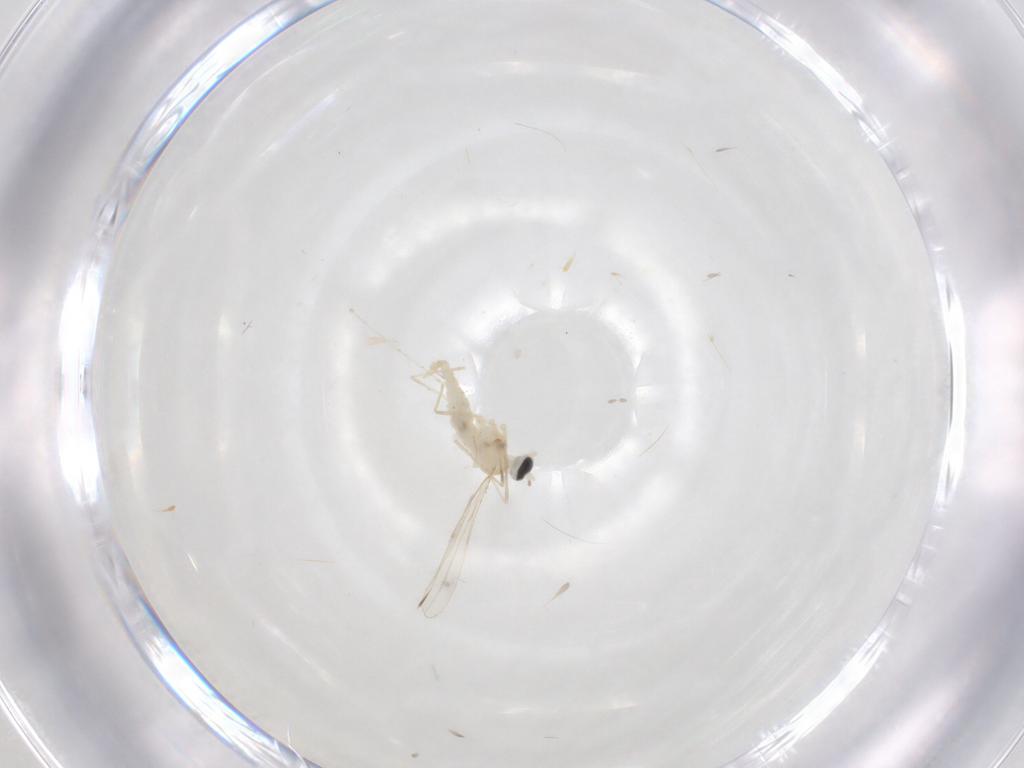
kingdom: Animalia
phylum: Arthropoda
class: Insecta
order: Diptera
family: Cecidomyiidae
